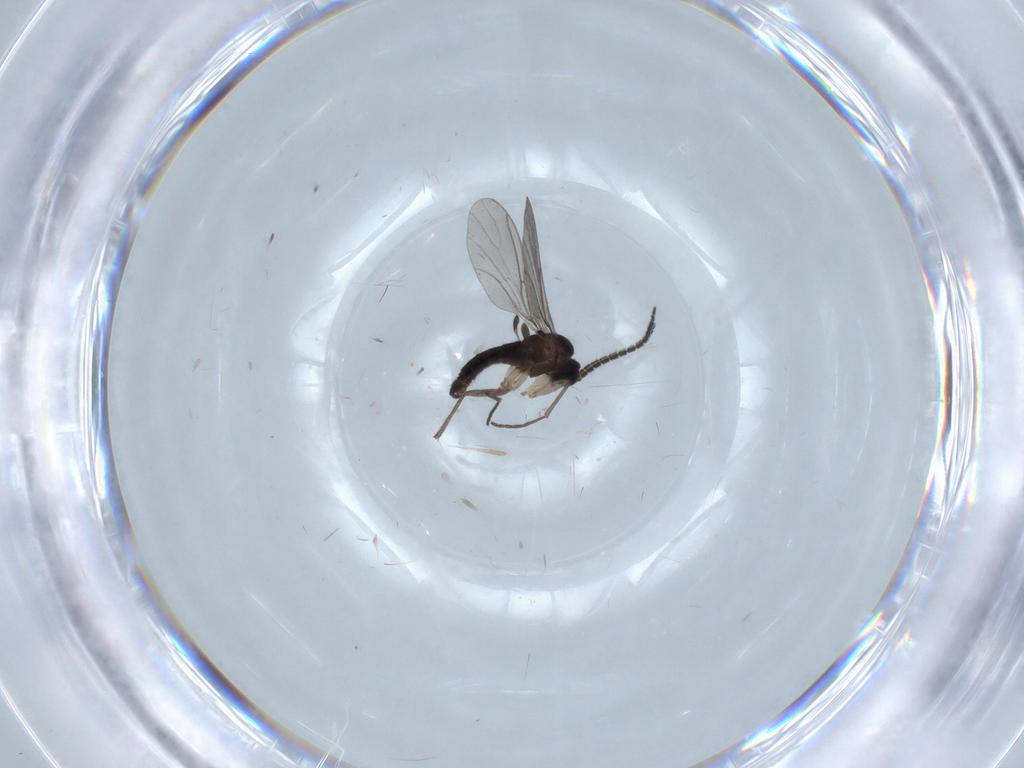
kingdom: Animalia
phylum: Arthropoda
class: Insecta
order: Diptera
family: Sciaridae
